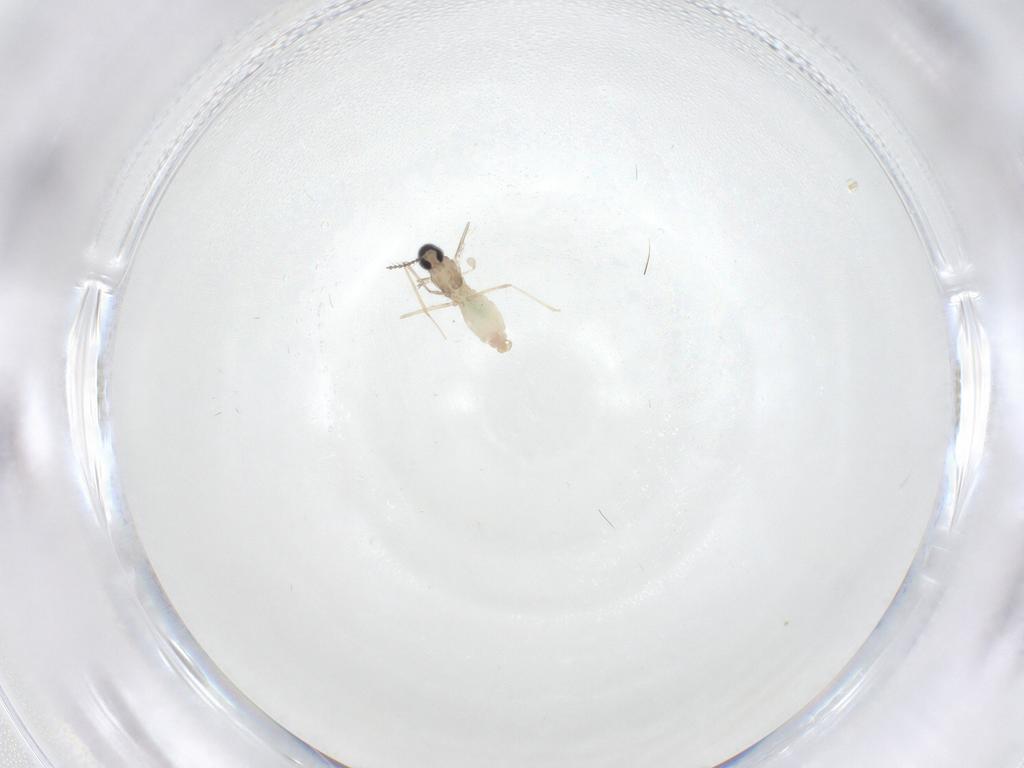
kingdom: Animalia
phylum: Arthropoda
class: Insecta
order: Diptera
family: Cecidomyiidae
